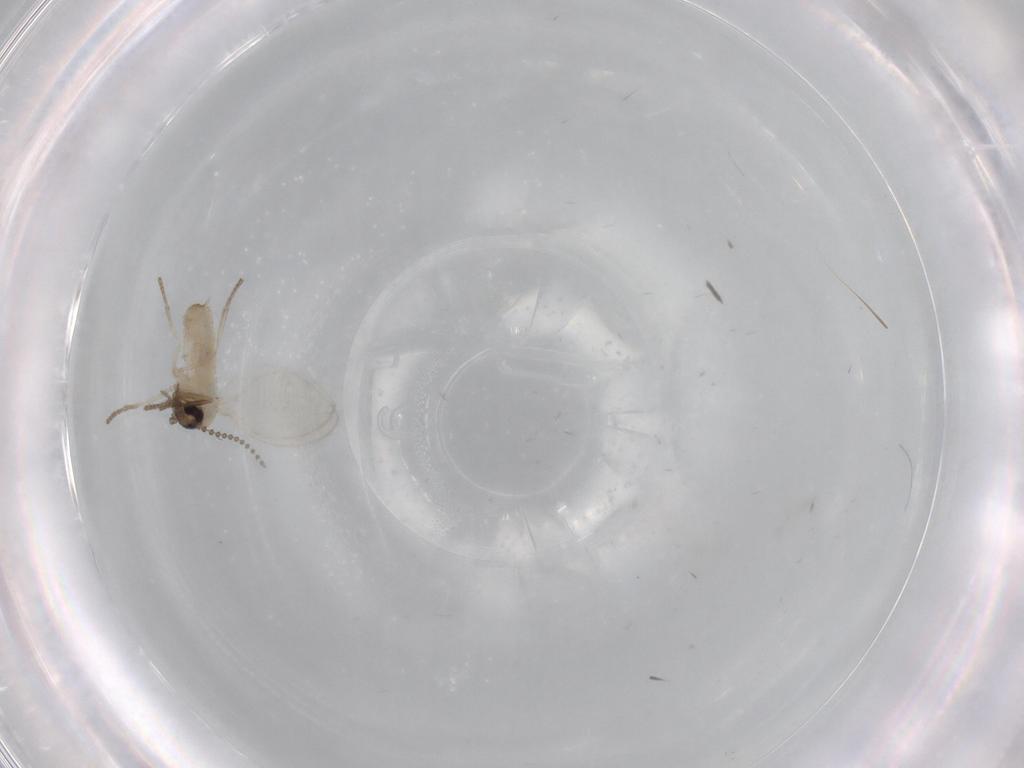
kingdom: Animalia
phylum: Arthropoda
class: Insecta
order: Diptera
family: Psychodidae
